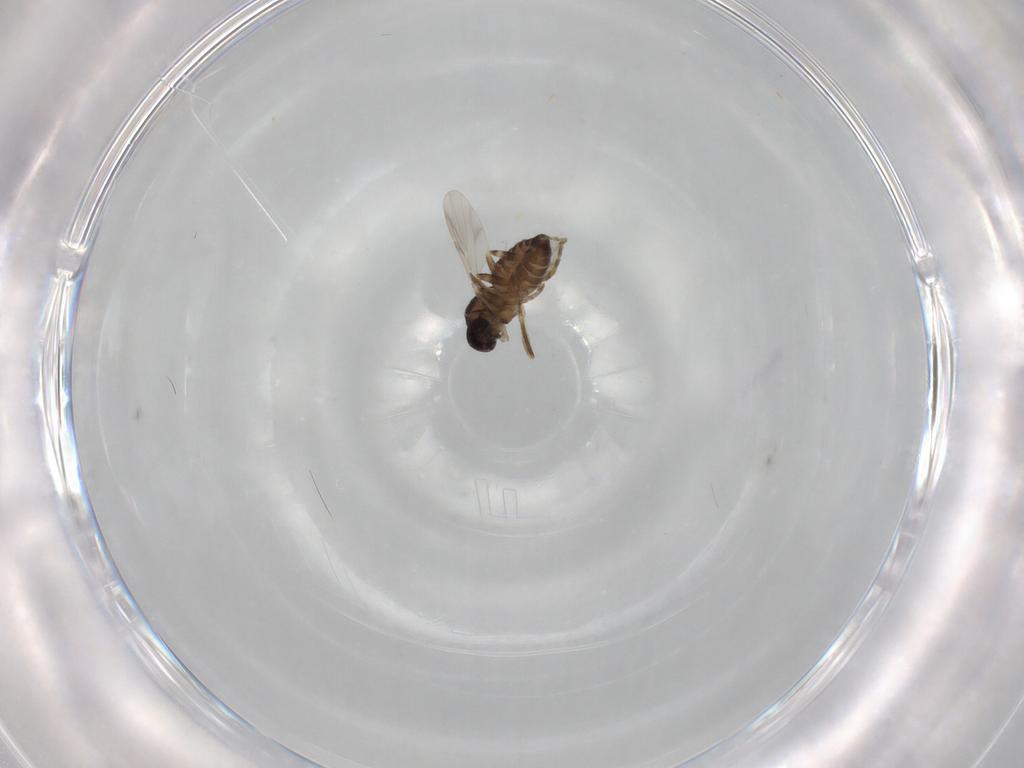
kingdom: Animalia
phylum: Arthropoda
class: Insecta
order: Diptera
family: Ceratopogonidae
